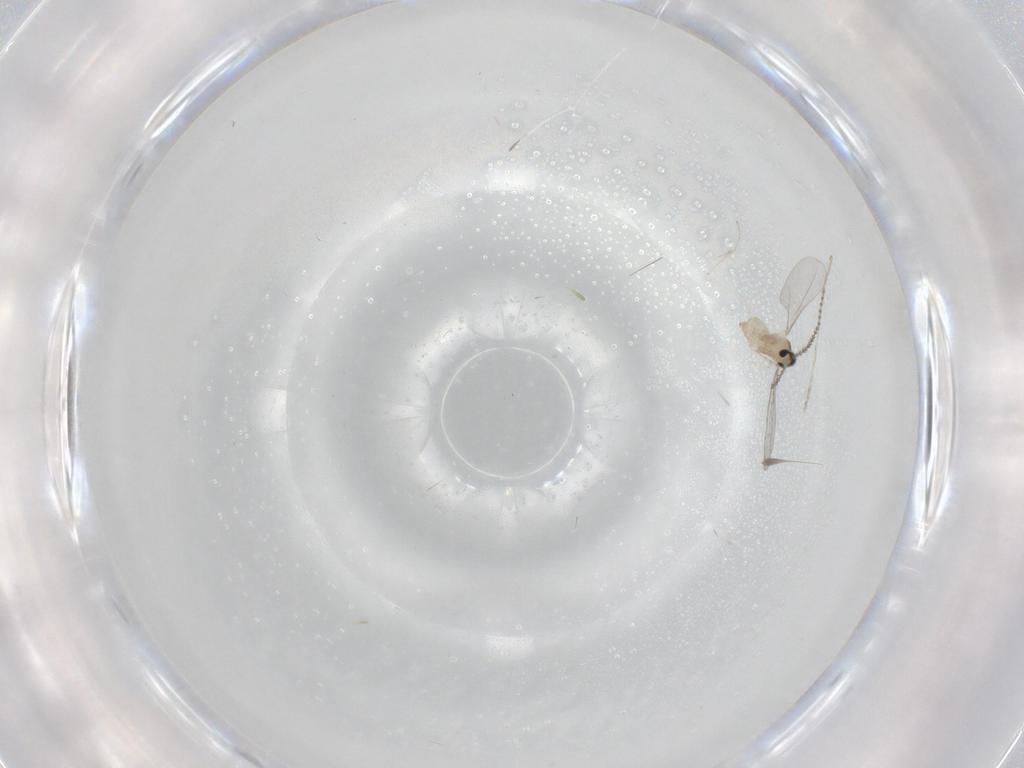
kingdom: Animalia
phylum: Arthropoda
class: Insecta
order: Diptera
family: Cecidomyiidae
